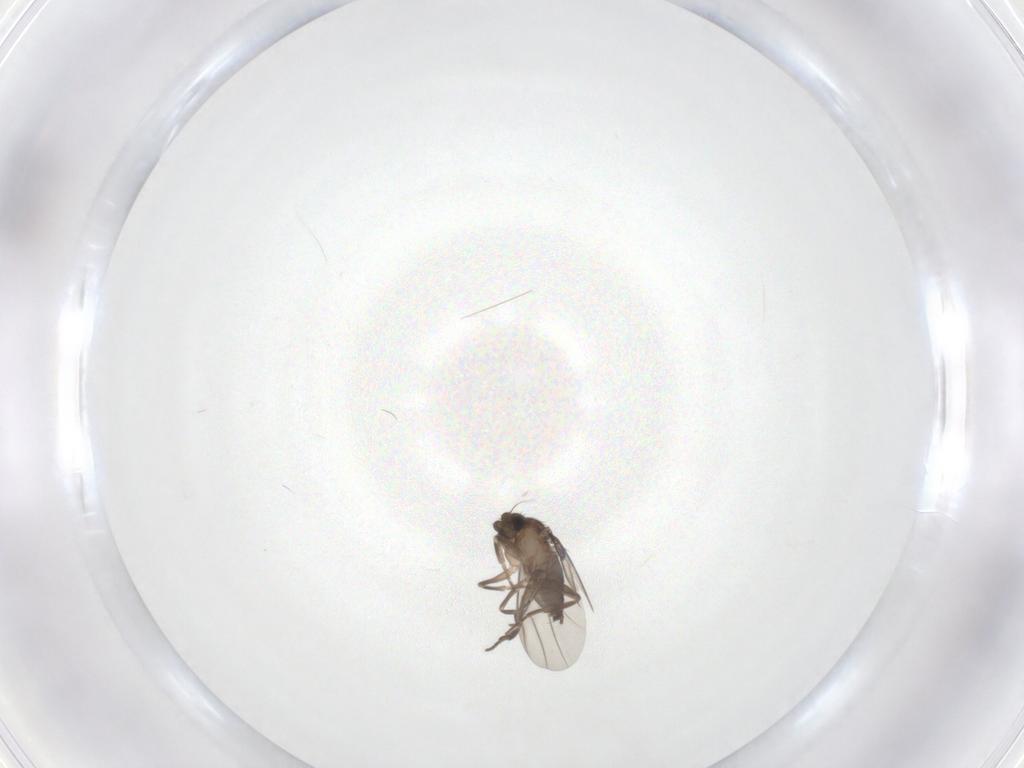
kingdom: Animalia
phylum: Arthropoda
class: Insecta
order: Diptera
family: Phoridae
